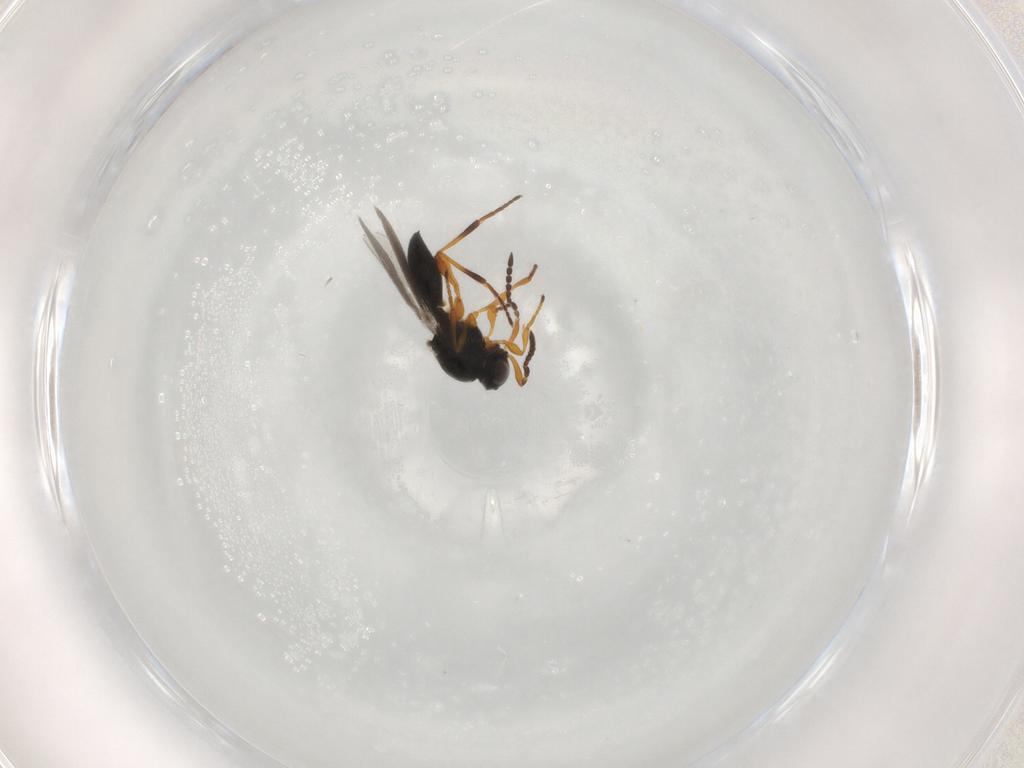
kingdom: Animalia
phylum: Arthropoda
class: Insecta
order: Hymenoptera
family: Platygastridae
